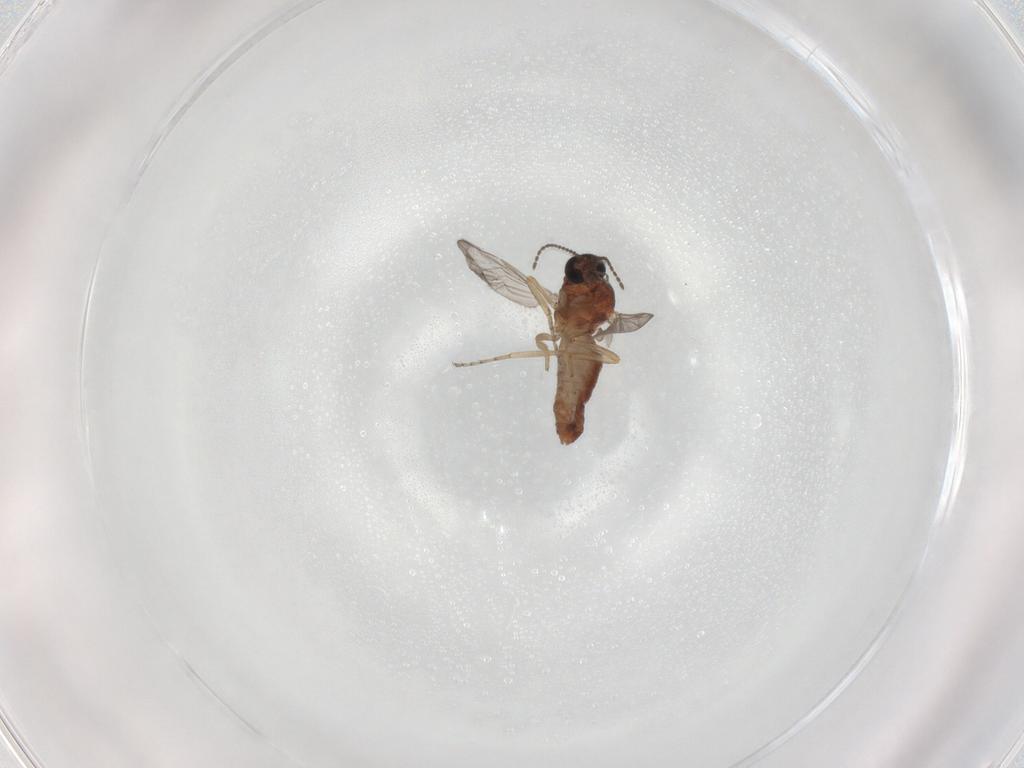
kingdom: Animalia
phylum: Arthropoda
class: Insecta
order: Diptera
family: Ceratopogonidae
